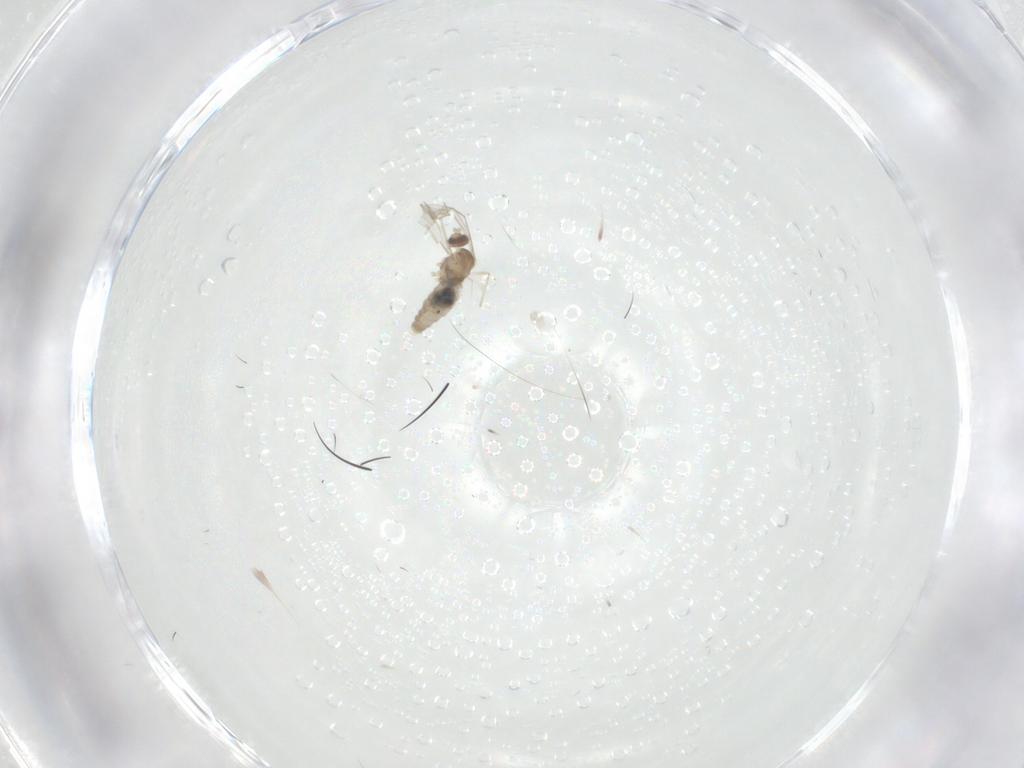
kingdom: Animalia
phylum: Arthropoda
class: Insecta
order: Diptera
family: Cecidomyiidae
